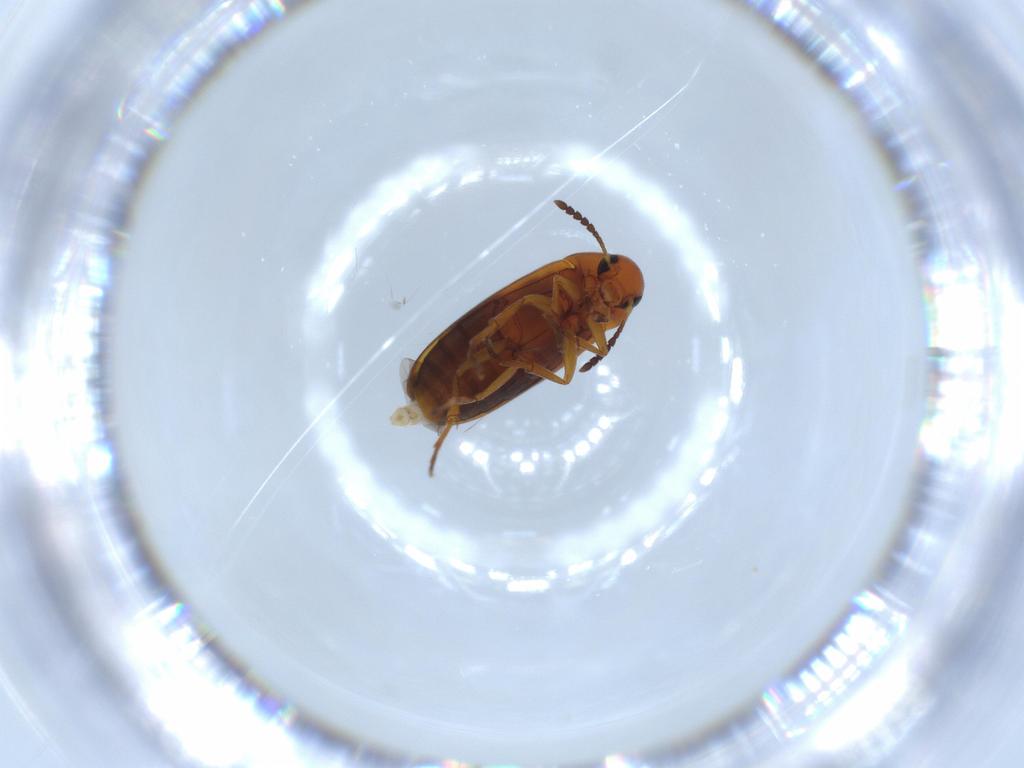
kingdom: Animalia
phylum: Arthropoda
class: Insecta
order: Coleoptera
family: Scraptiidae
